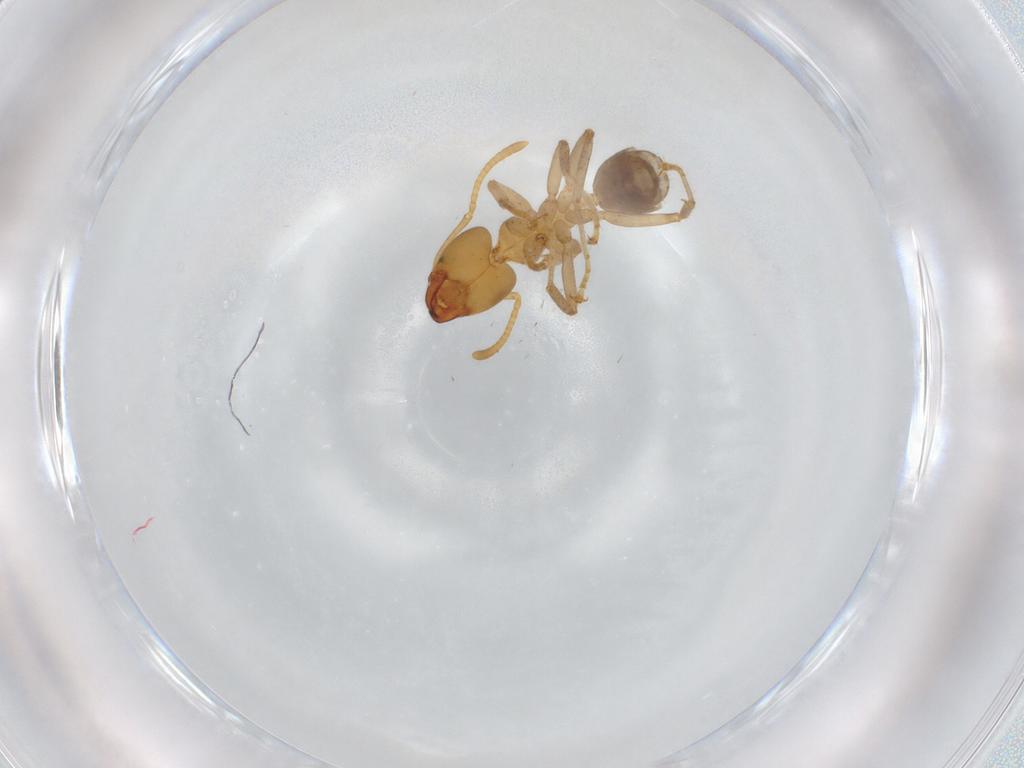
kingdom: Animalia
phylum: Arthropoda
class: Insecta
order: Hymenoptera
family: Formicidae
